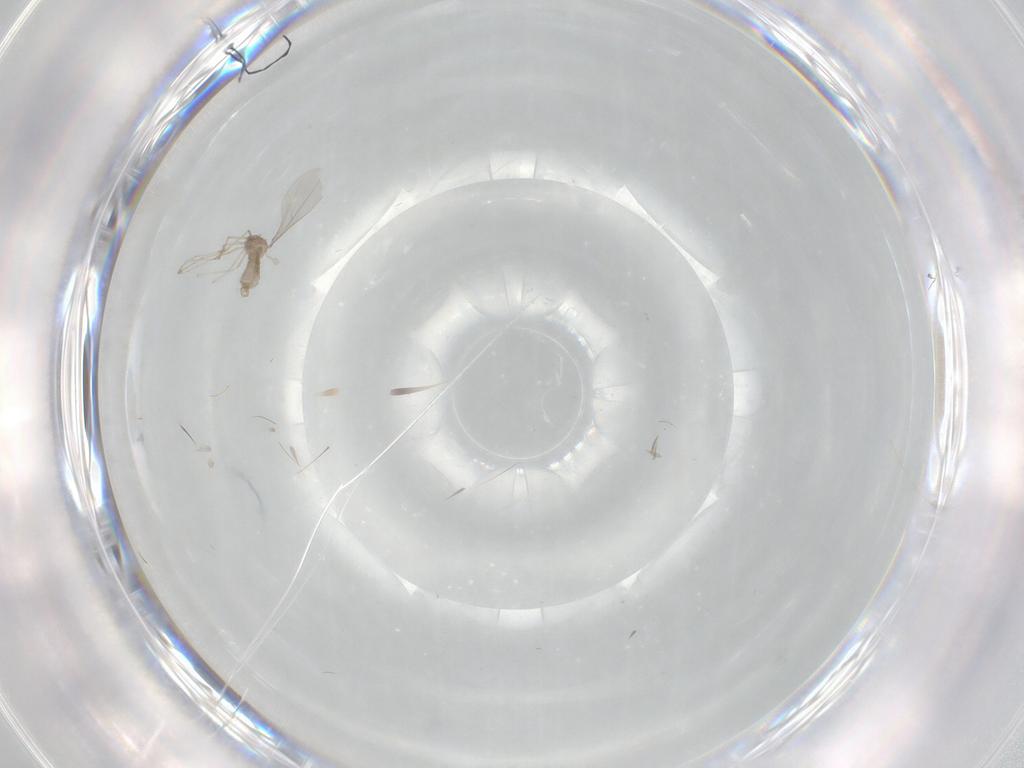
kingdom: Animalia
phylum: Arthropoda
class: Insecta
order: Diptera
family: Cecidomyiidae
